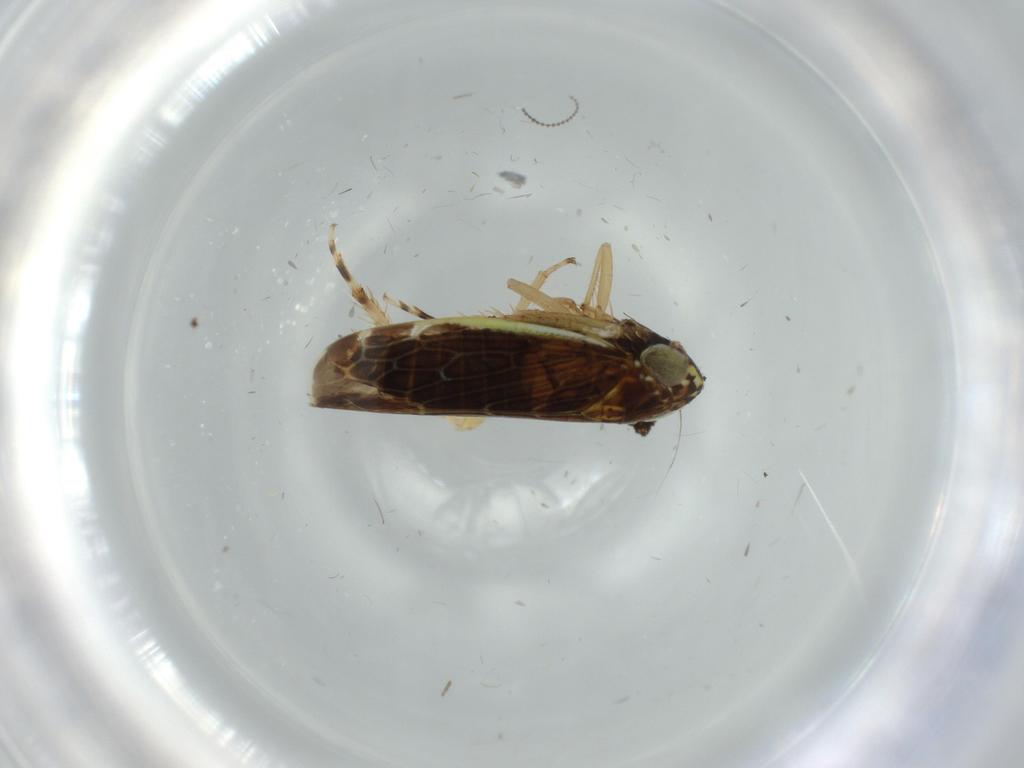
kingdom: Animalia
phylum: Arthropoda
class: Insecta
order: Hemiptera
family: Cicadellidae
